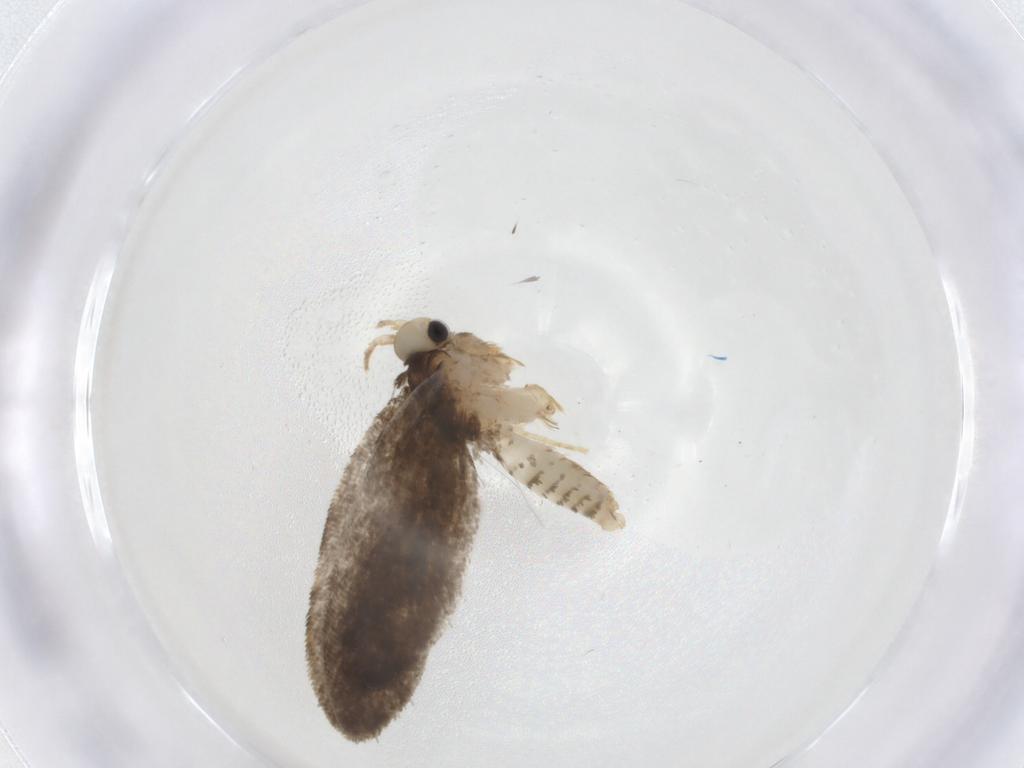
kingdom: Animalia
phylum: Arthropoda
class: Insecta
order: Lepidoptera
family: Psychidae
